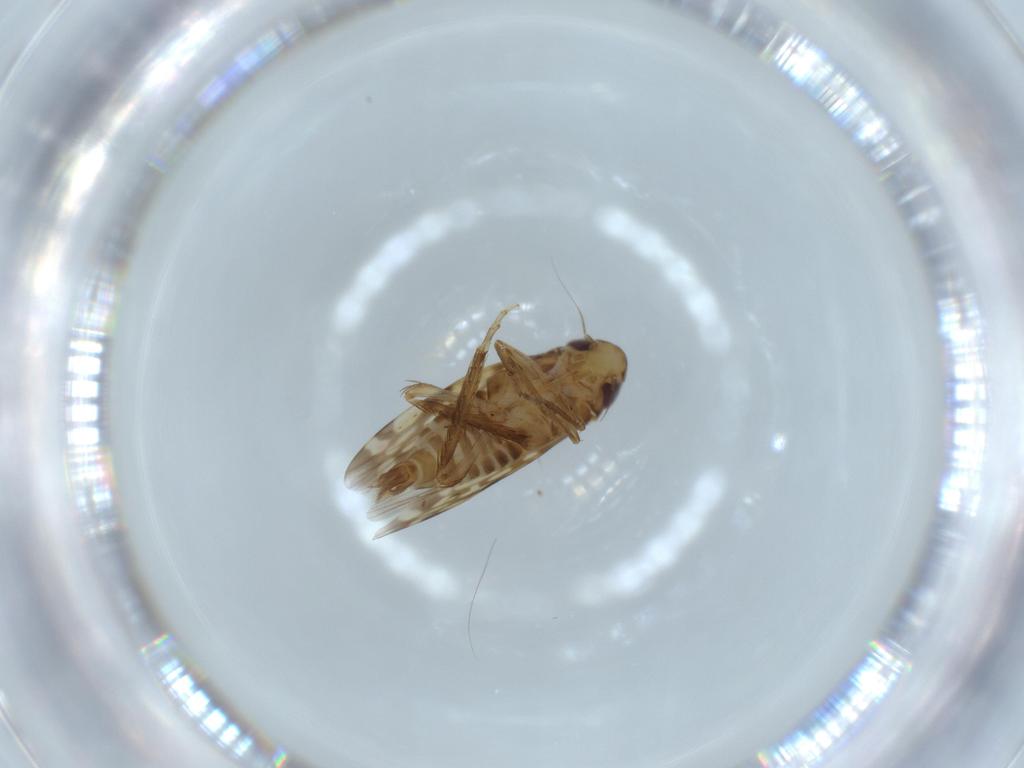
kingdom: Animalia
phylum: Arthropoda
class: Insecta
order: Hemiptera
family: Cicadellidae
